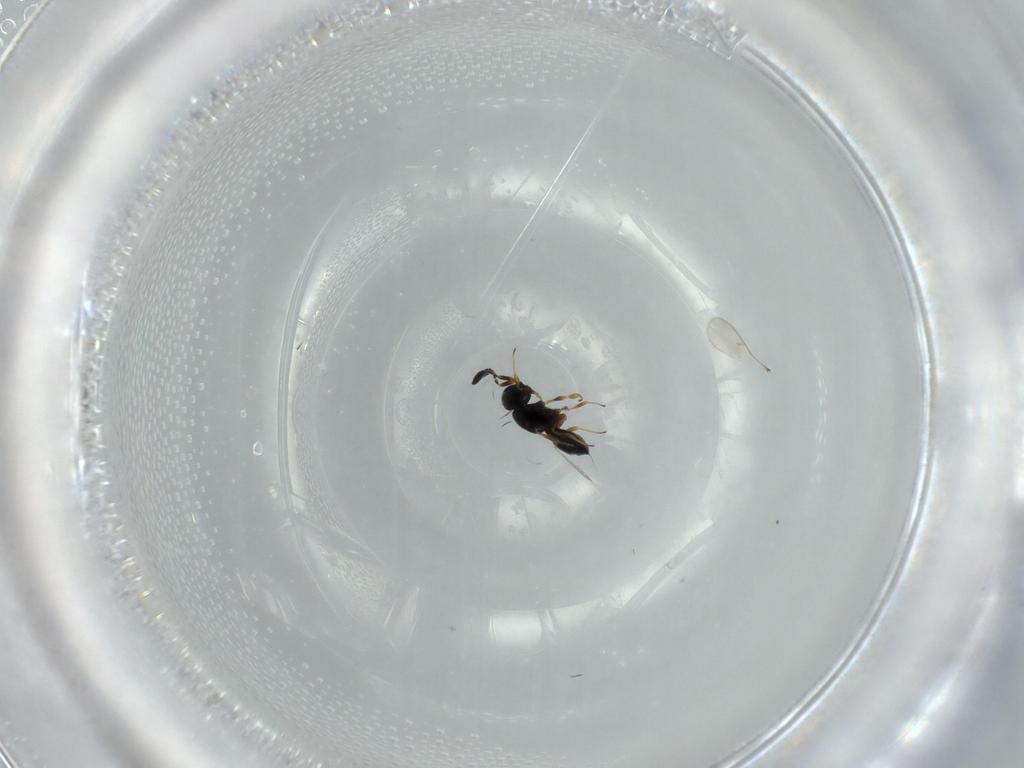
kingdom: Animalia
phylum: Arthropoda
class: Insecta
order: Hymenoptera
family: Scelionidae
